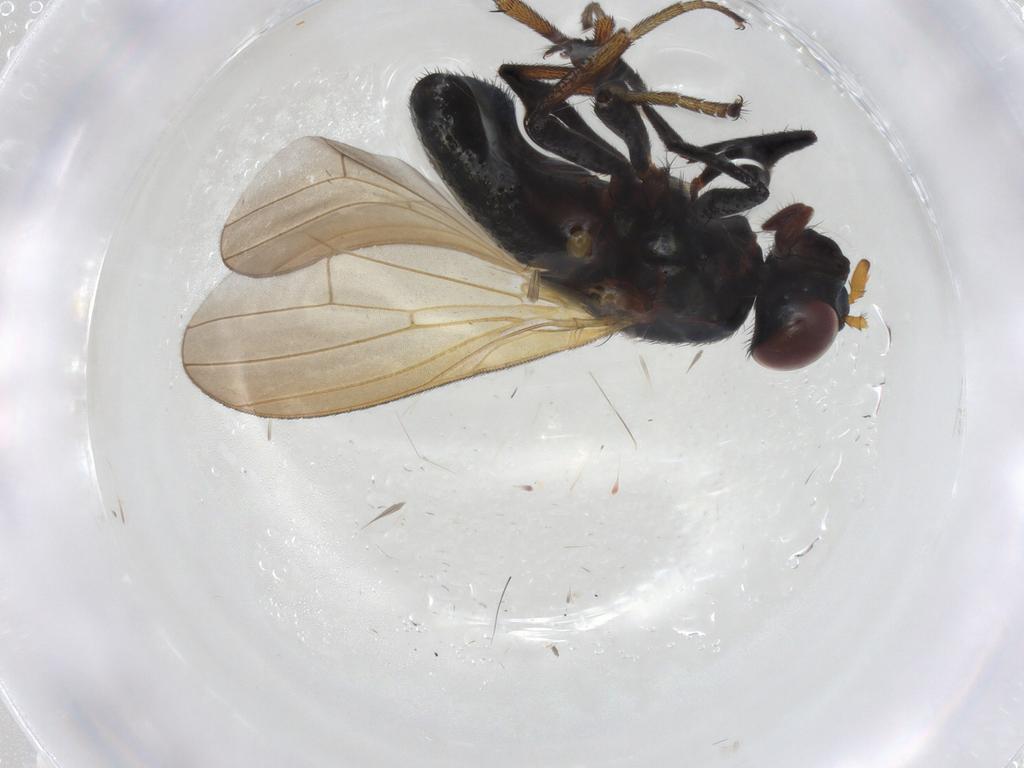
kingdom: Animalia
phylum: Arthropoda
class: Insecta
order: Diptera
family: Lauxaniidae
